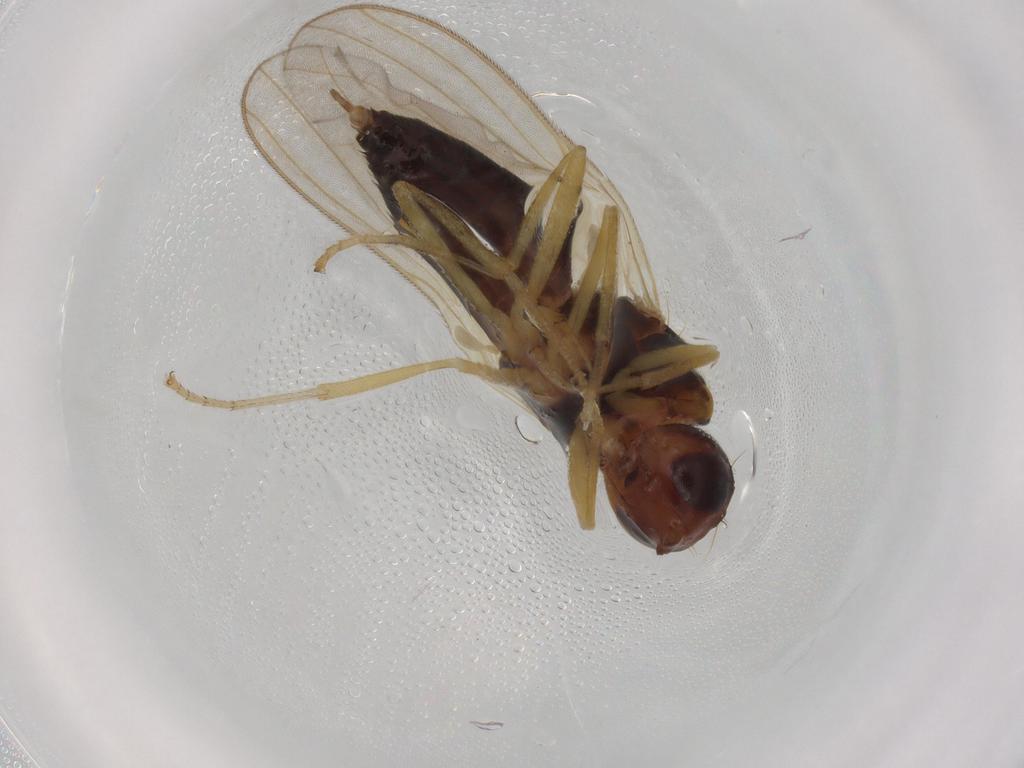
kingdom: Animalia
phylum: Arthropoda
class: Insecta
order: Diptera
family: Psilidae
